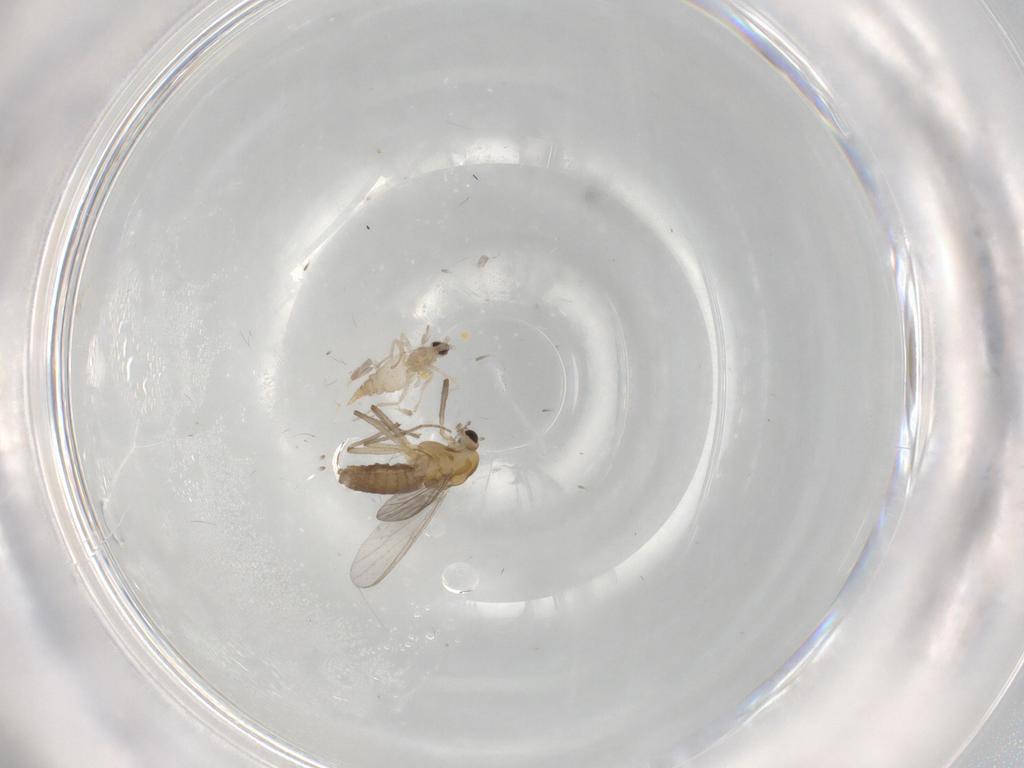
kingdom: Animalia
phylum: Arthropoda
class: Insecta
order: Diptera
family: Chironomidae
